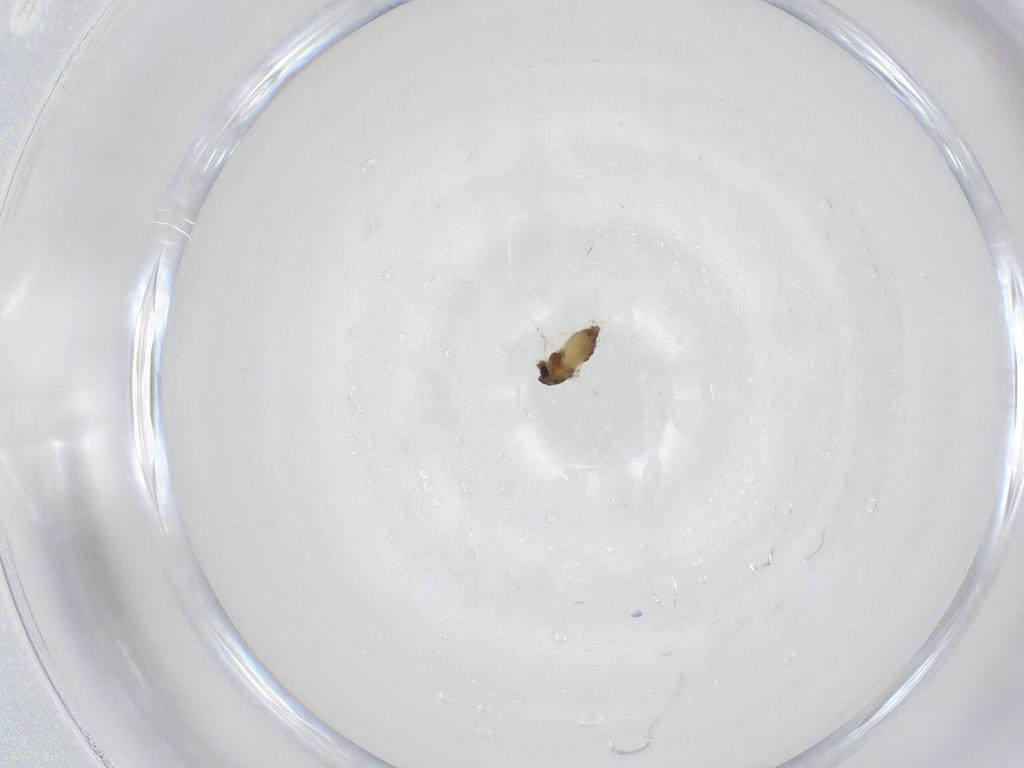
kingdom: Animalia
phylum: Arthropoda
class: Insecta
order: Diptera
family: Chironomidae
